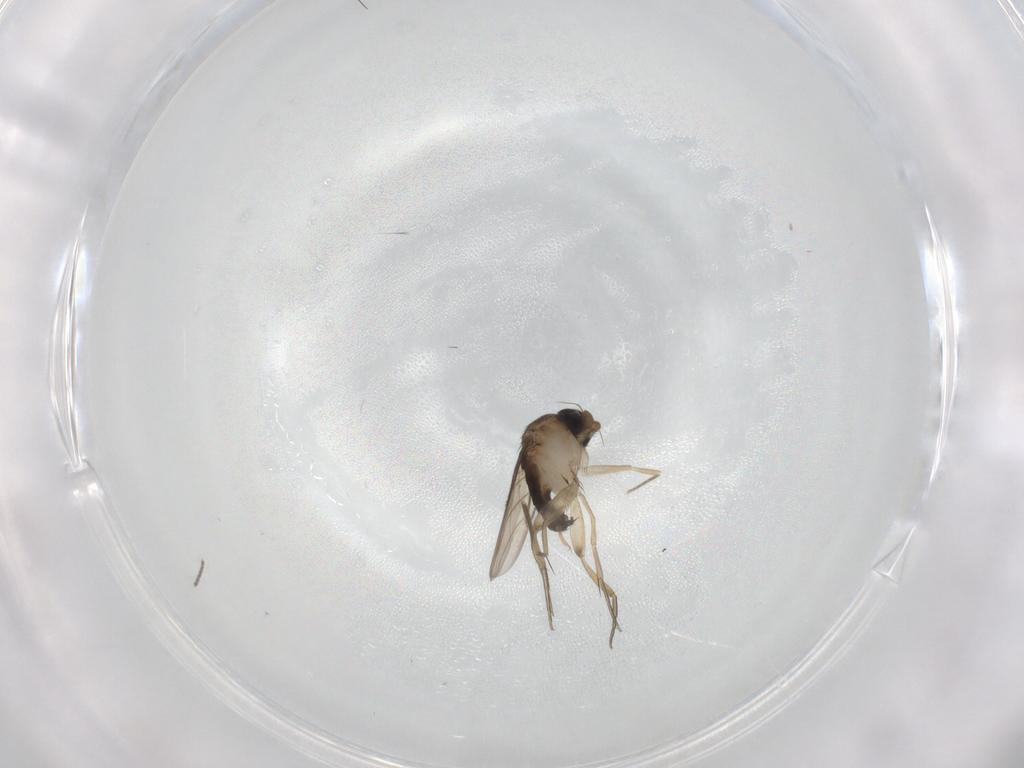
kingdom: Animalia
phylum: Arthropoda
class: Insecta
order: Diptera
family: Phoridae
